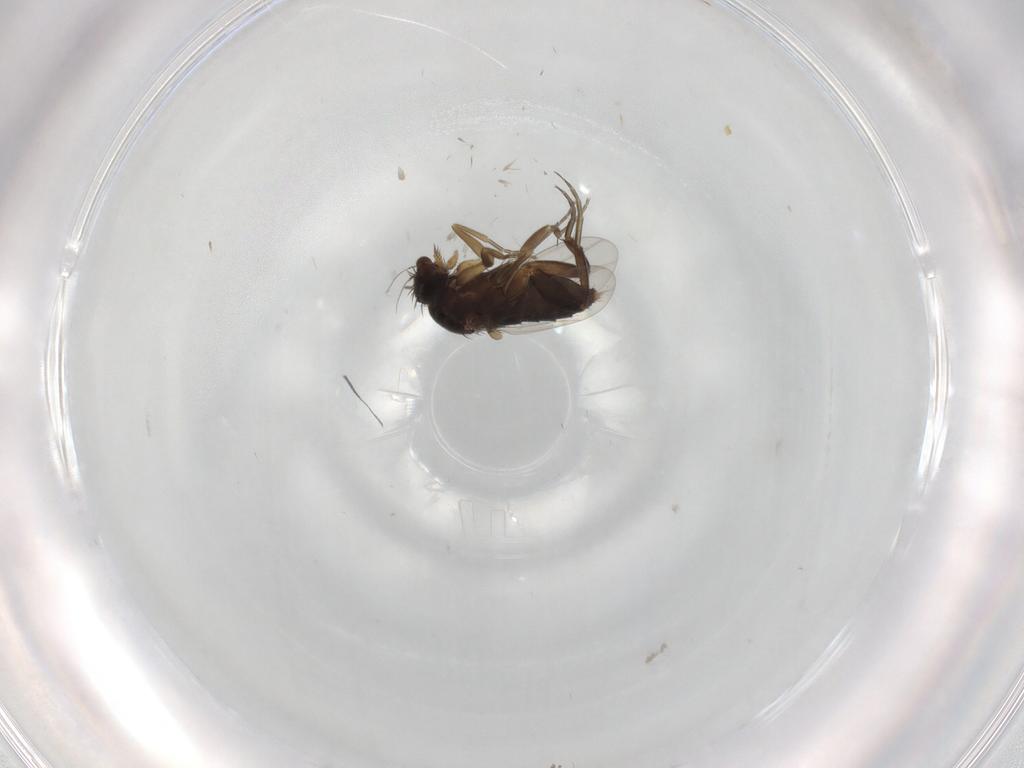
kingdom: Animalia
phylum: Arthropoda
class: Insecta
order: Diptera
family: Phoridae
